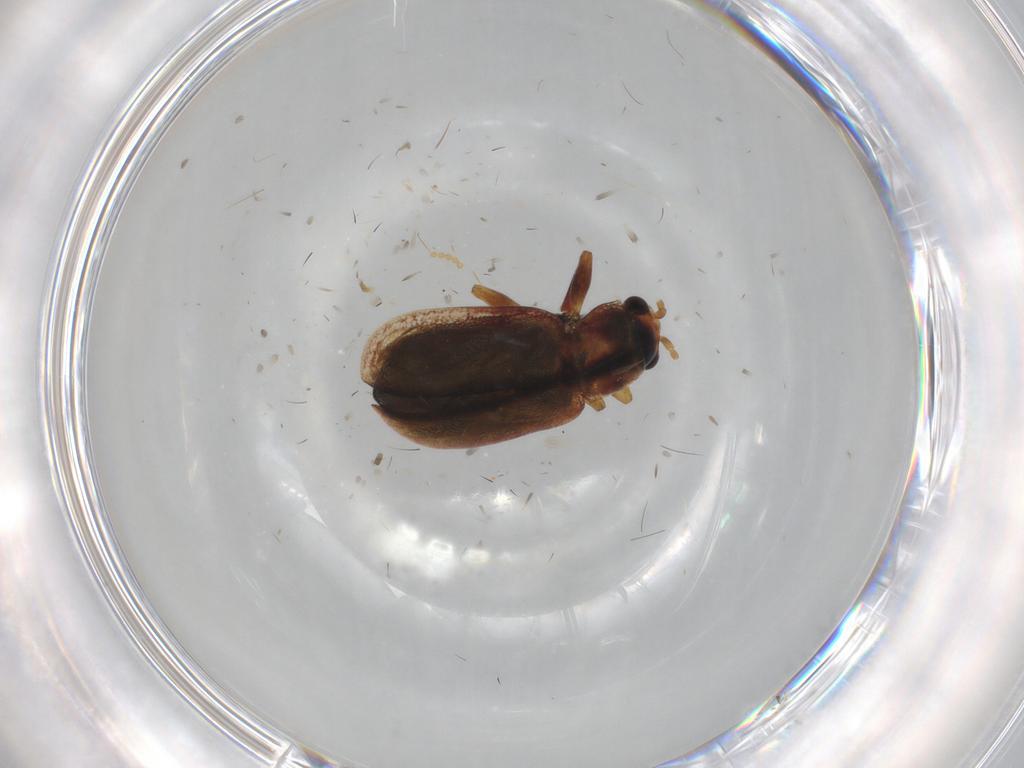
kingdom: Animalia
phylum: Arthropoda
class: Insecta
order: Coleoptera
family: Chrysomelidae
